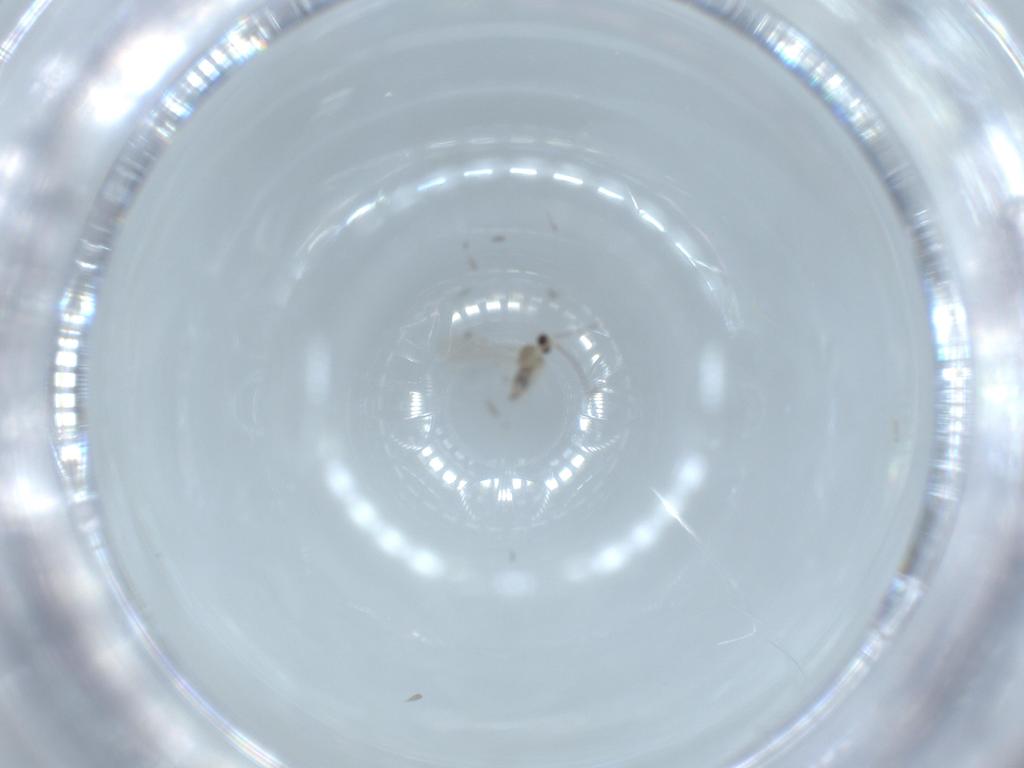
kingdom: Animalia
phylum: Arthropoda
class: Insecta
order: Diptera
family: Cecidomyiidae
